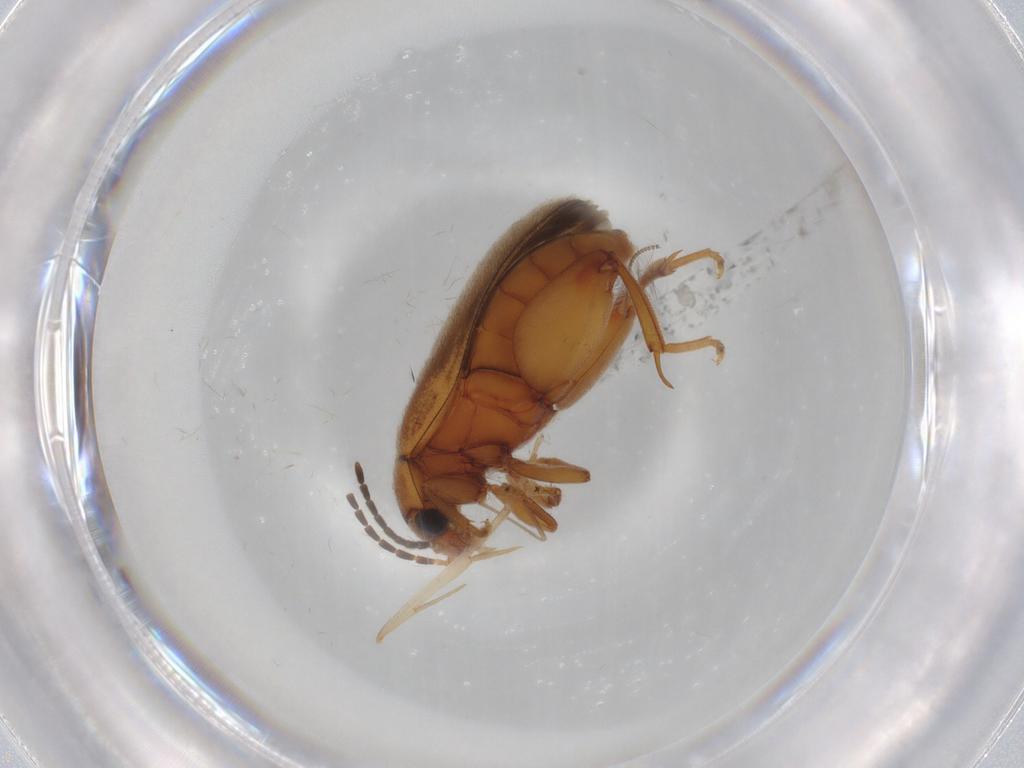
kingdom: Animalia
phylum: Arthropoda
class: Insecta
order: Coleoptera
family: Scirtidae
